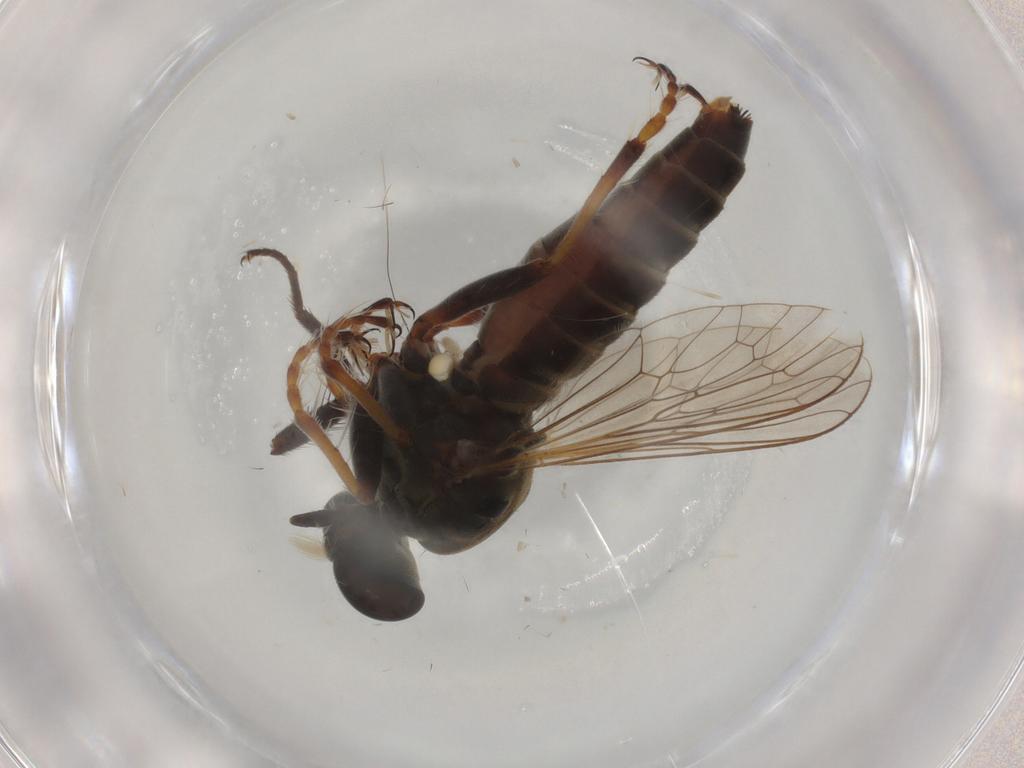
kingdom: Animalia
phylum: Arthropoda
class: Insecta
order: Diptera
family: Asilidae
